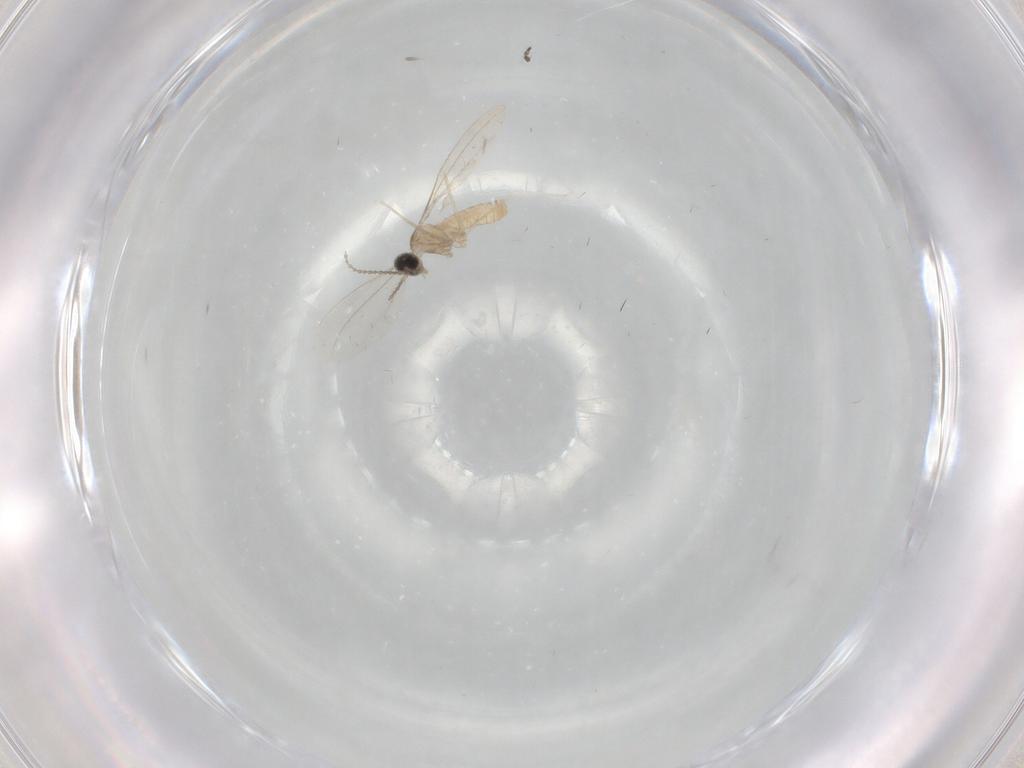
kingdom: Animalia
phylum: Arthropoda
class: Insecta
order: Diptera
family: Cecidomyiidae
